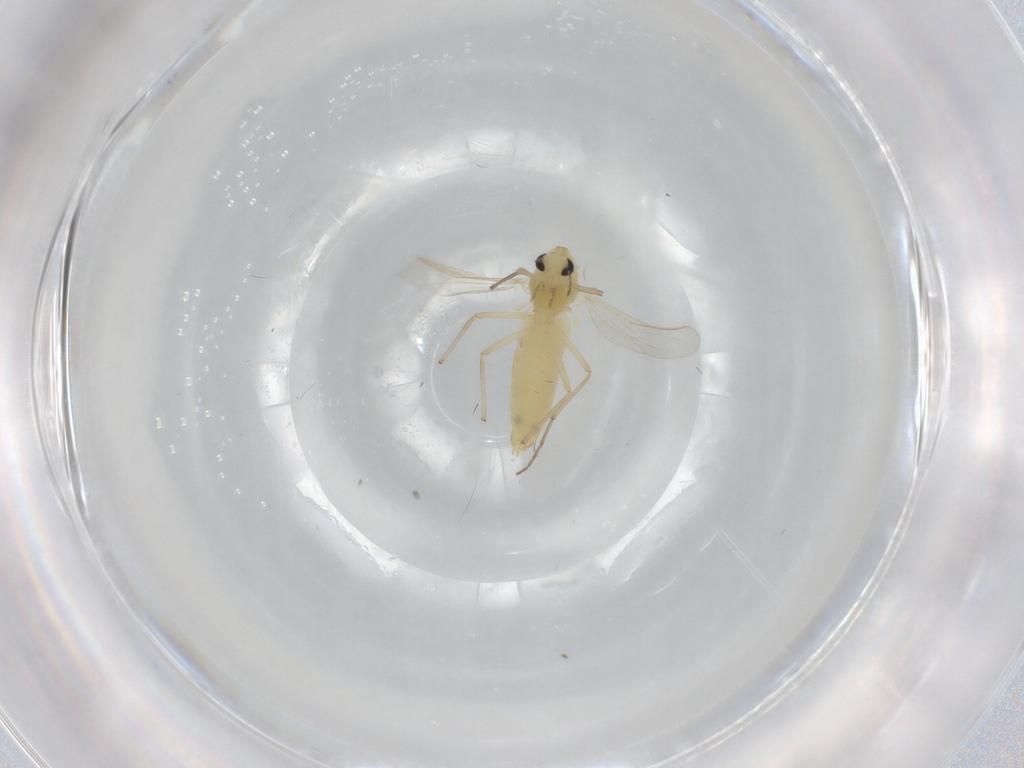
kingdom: Animalia
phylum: Arthropoda
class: Insecta
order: Diptera
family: Chironomidae
